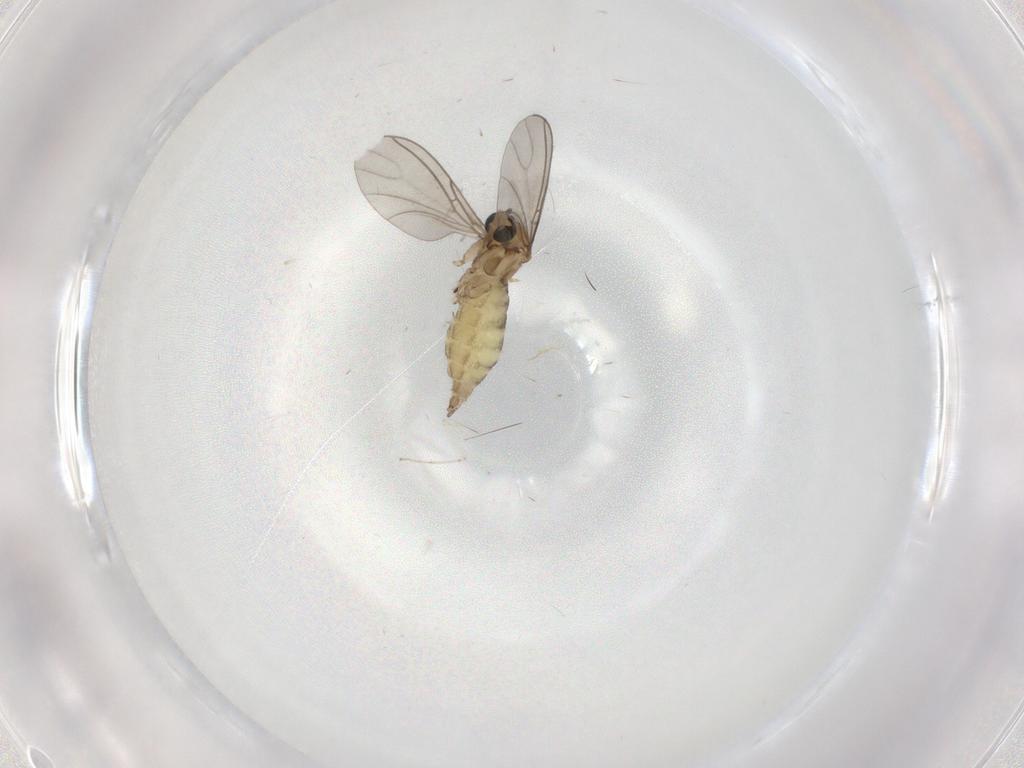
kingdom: Animalia
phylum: Arthropoda
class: Insecta
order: Diptera
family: Sciaridae
